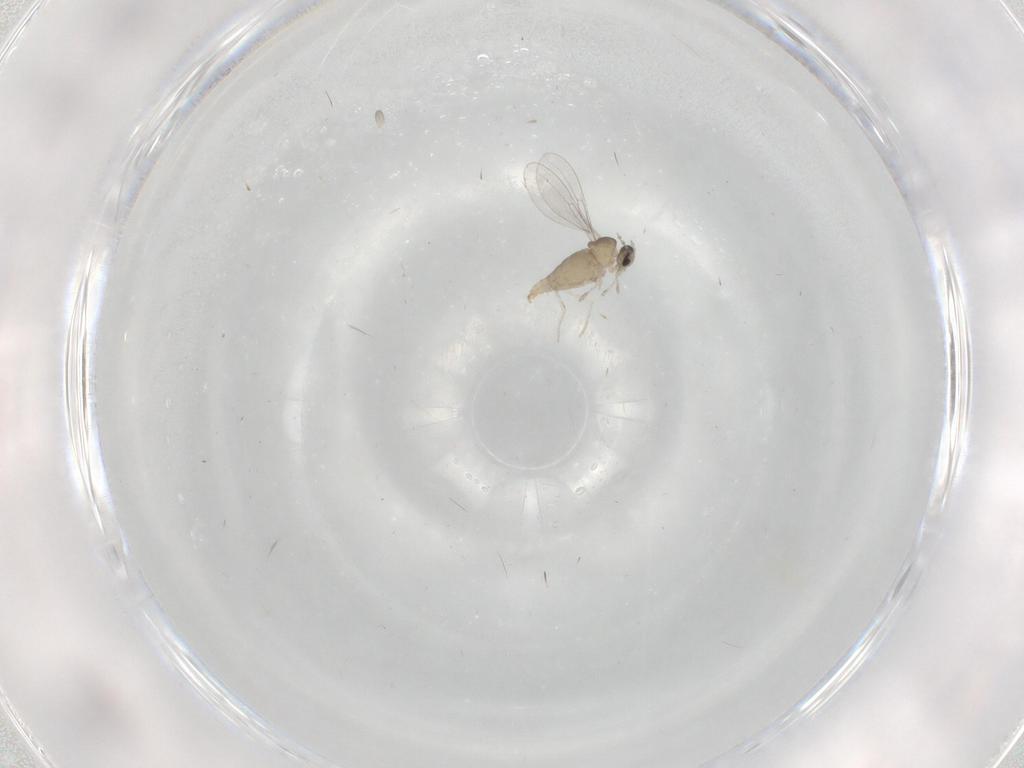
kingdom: Animalia
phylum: Arthropoda
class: Insecta
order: Diptera
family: Cecidomyiidae
